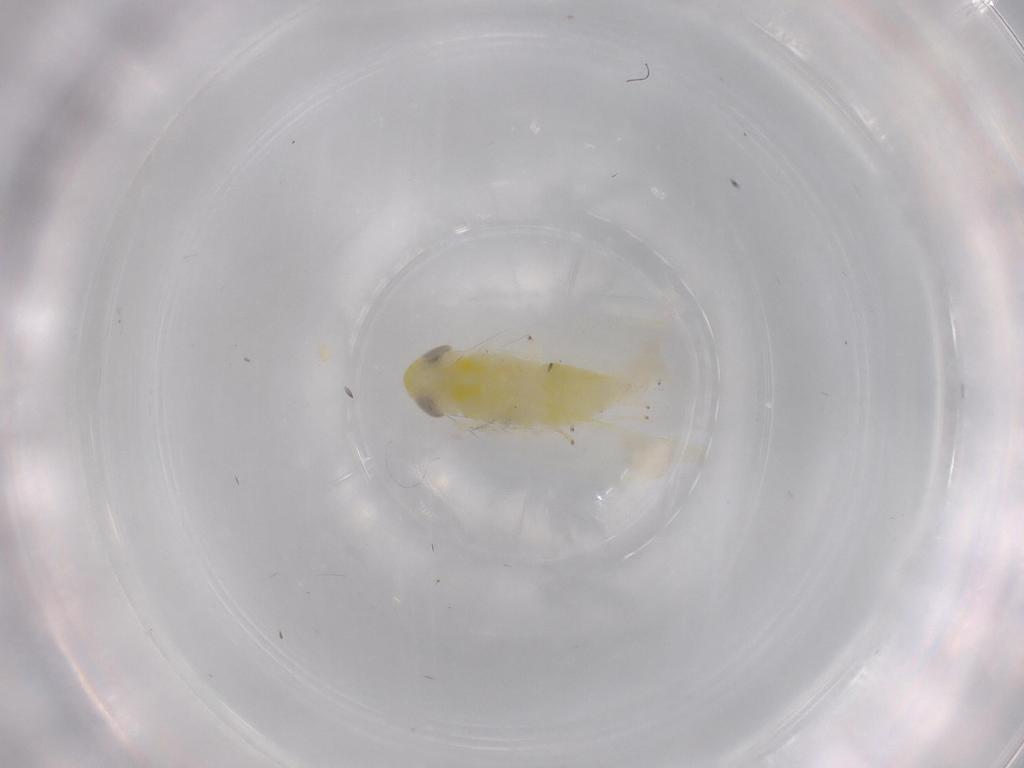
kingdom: Animalia
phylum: Arthropoda
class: Insecta
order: Hemiptera
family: Cicadellidae
